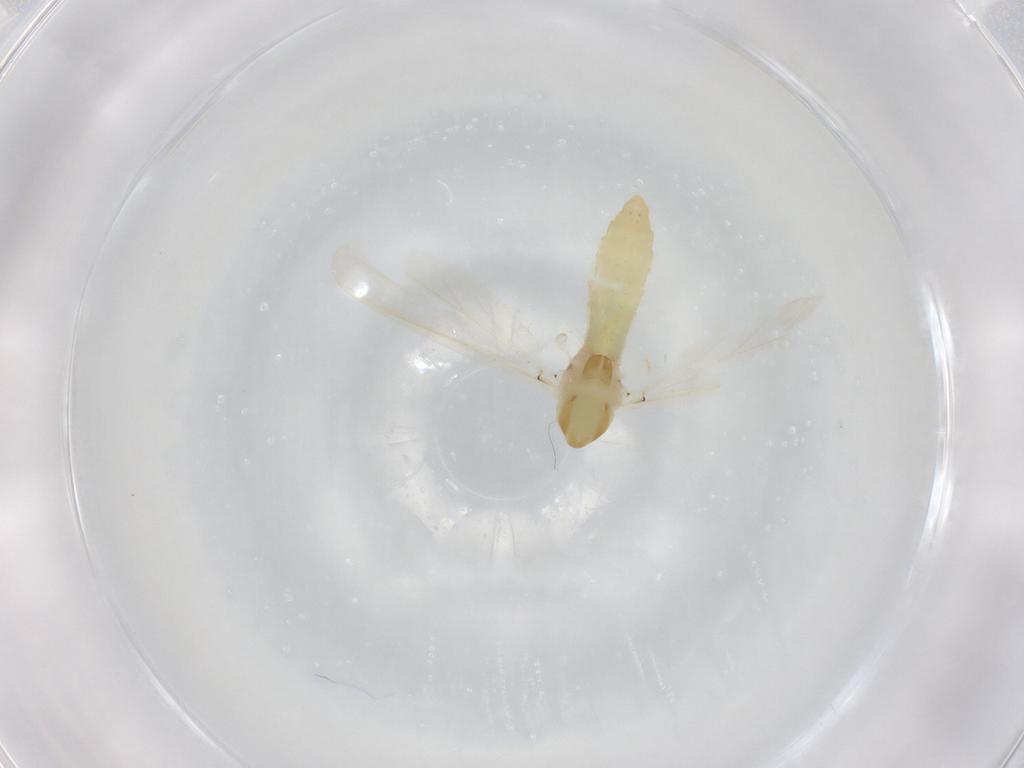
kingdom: Animalia
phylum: Arthropoda
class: Insecta
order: Diptera
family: Chironomidae
